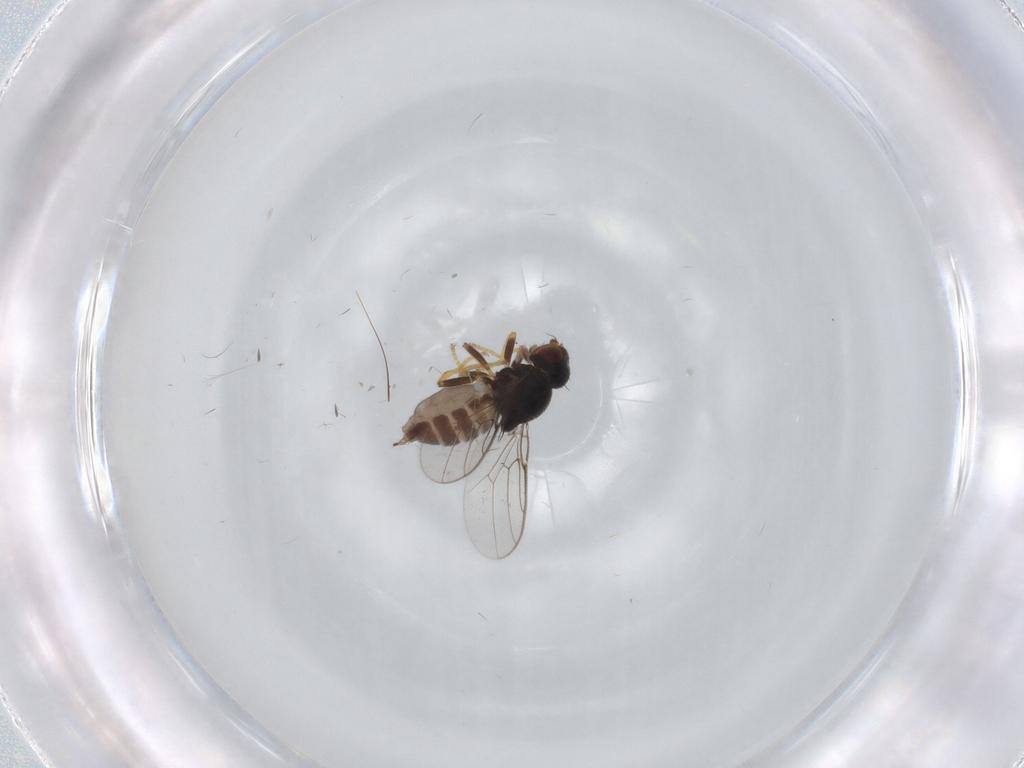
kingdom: Animalia
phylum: Arthropoda
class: Insecta
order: Diptera
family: Chloropidae
